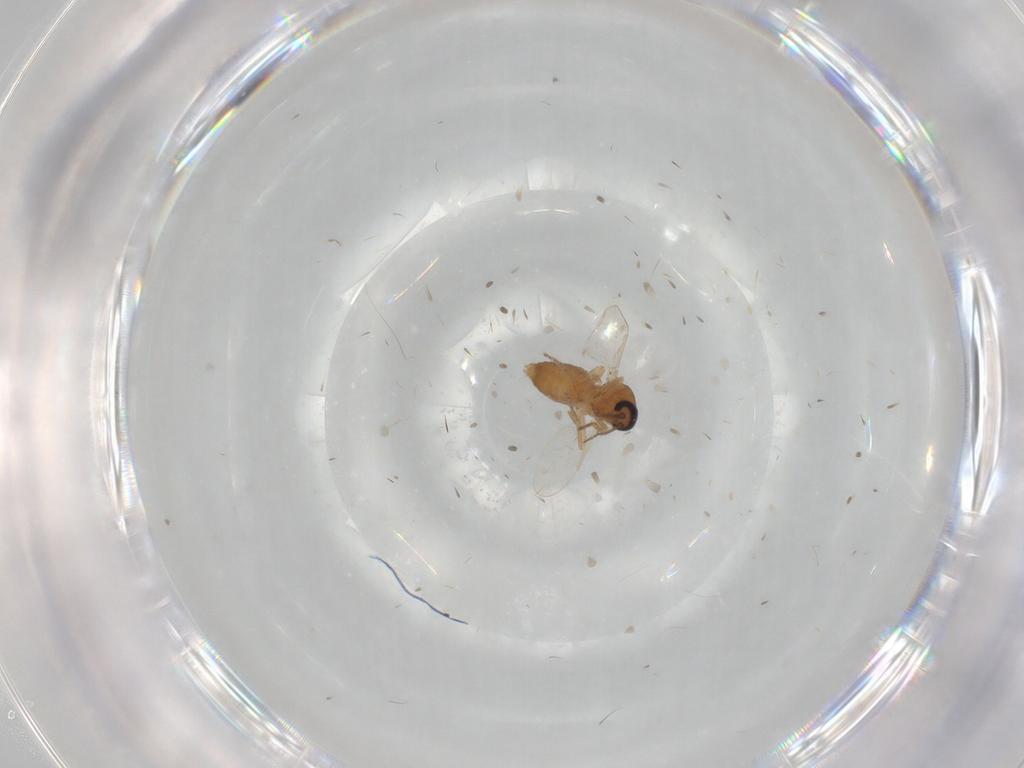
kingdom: Animalia
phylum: Arthropoda
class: Insecta
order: Diptera
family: Ceratopogonidae
